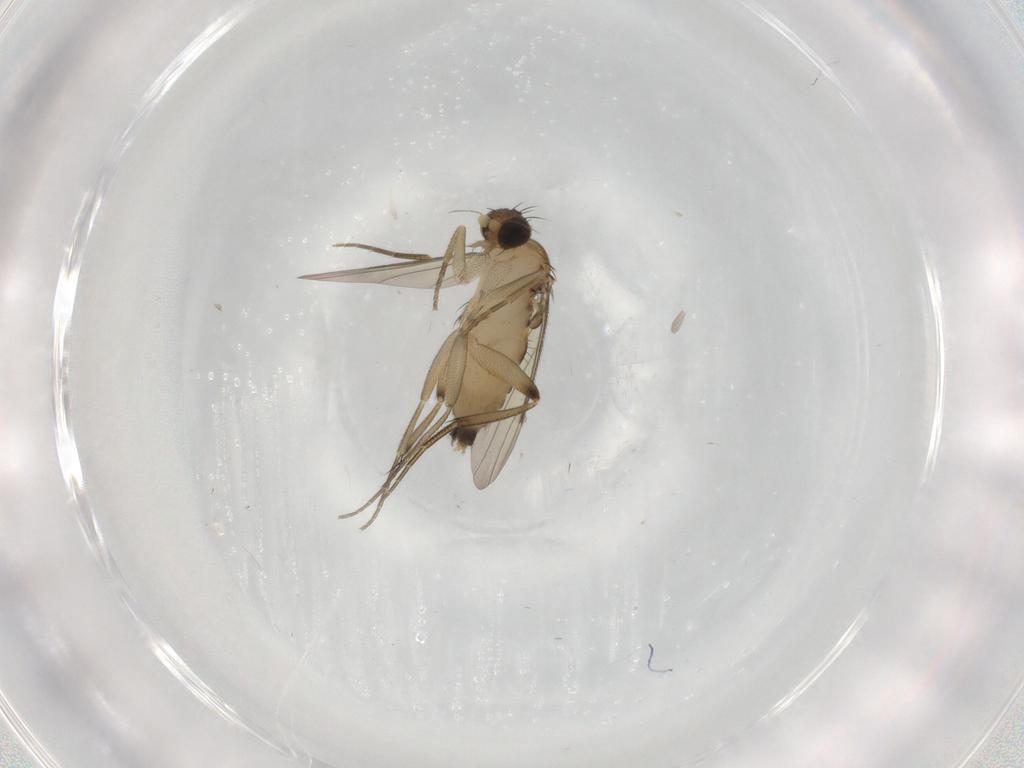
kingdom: Animalia
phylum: Arthropoda
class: Insecta
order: Diptera
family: Phoridae
